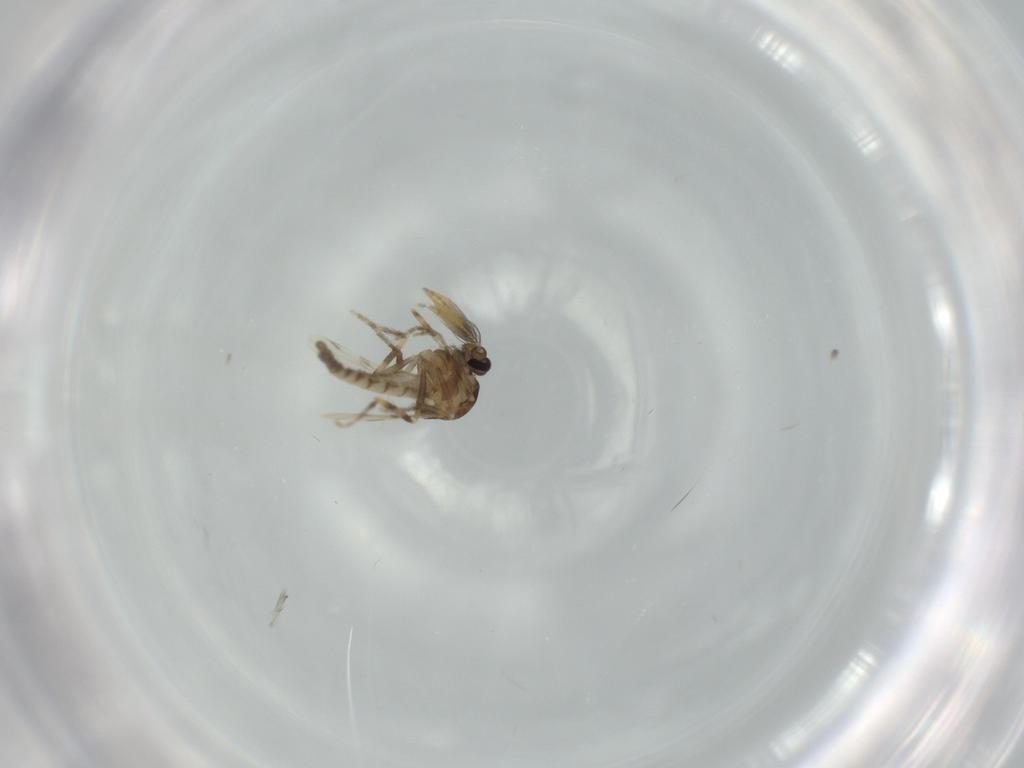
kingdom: Animalia
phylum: Arthropoda
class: Insecta
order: Diptera
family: Ceratopogonidae
